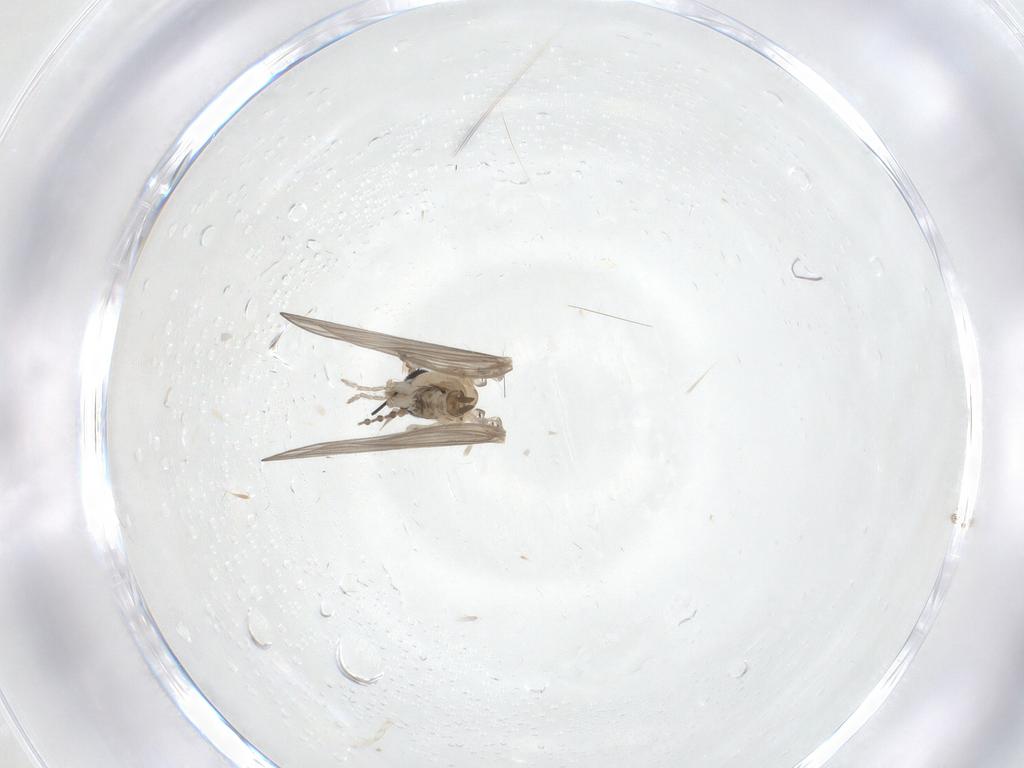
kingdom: Animalia
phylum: Arthropoda
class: Insecta
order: Diptera
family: Psychodidae
